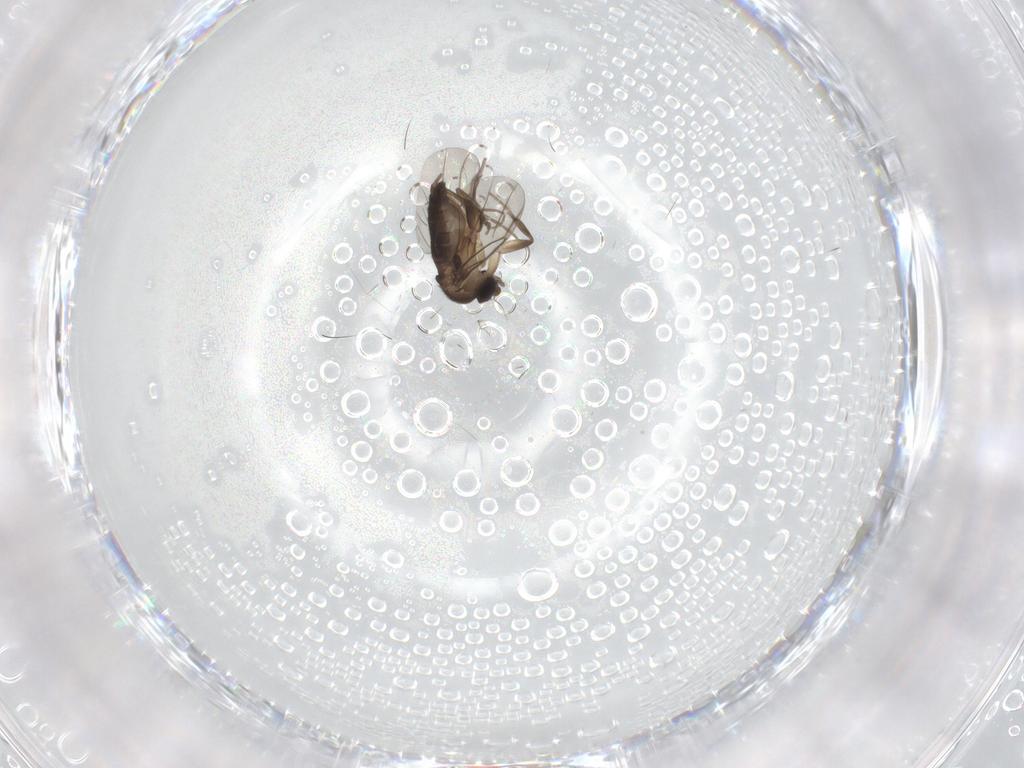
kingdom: Animalia
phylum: Arthropoda
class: Insecta
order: Diptera
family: Phoridae
